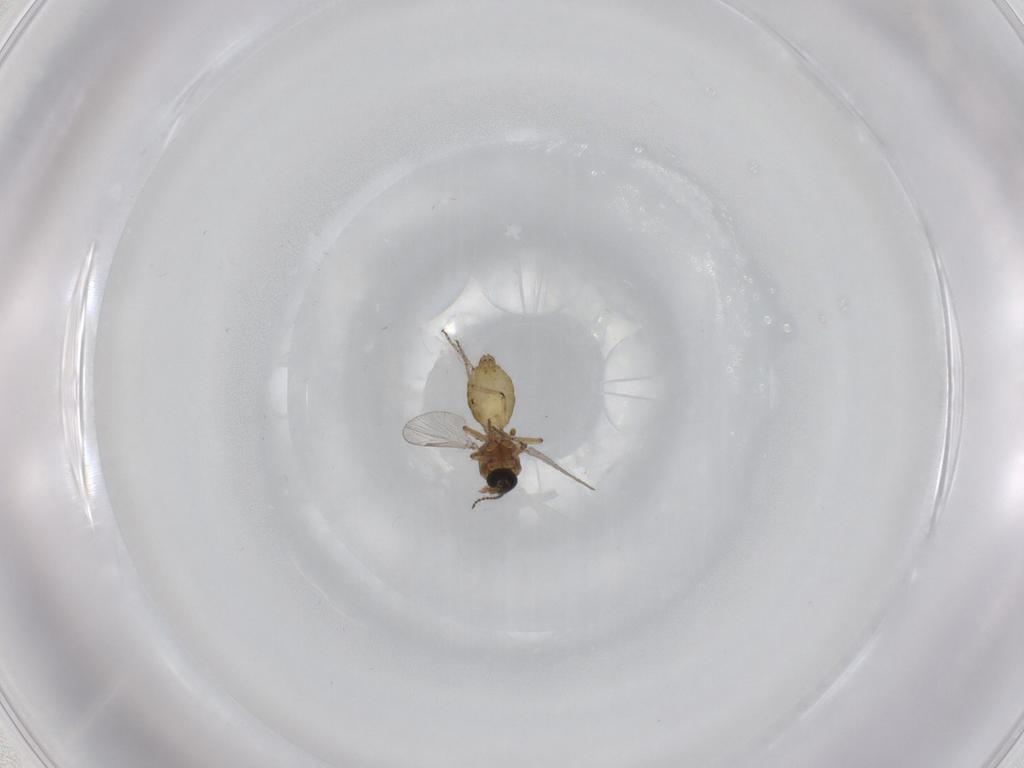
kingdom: Animalia
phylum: Arthropoda
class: Insecta
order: Diptera
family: Ceratopogonidae
